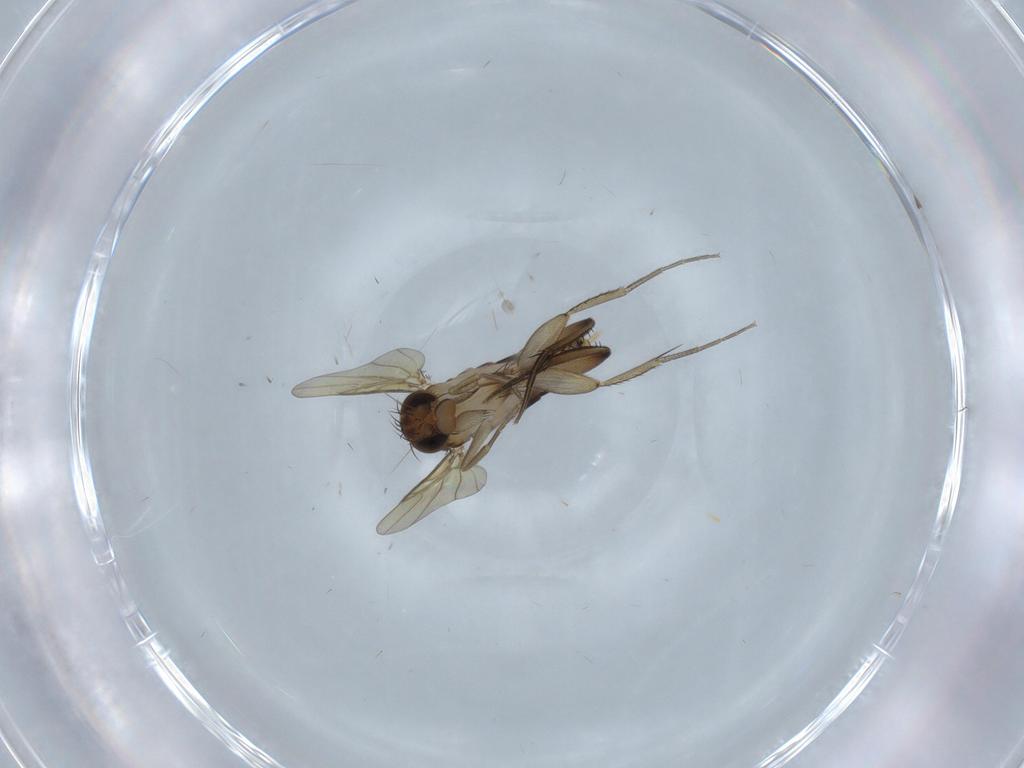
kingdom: Animalia
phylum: Arthropoda
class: Insecta
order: Diptera
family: Phoridae
